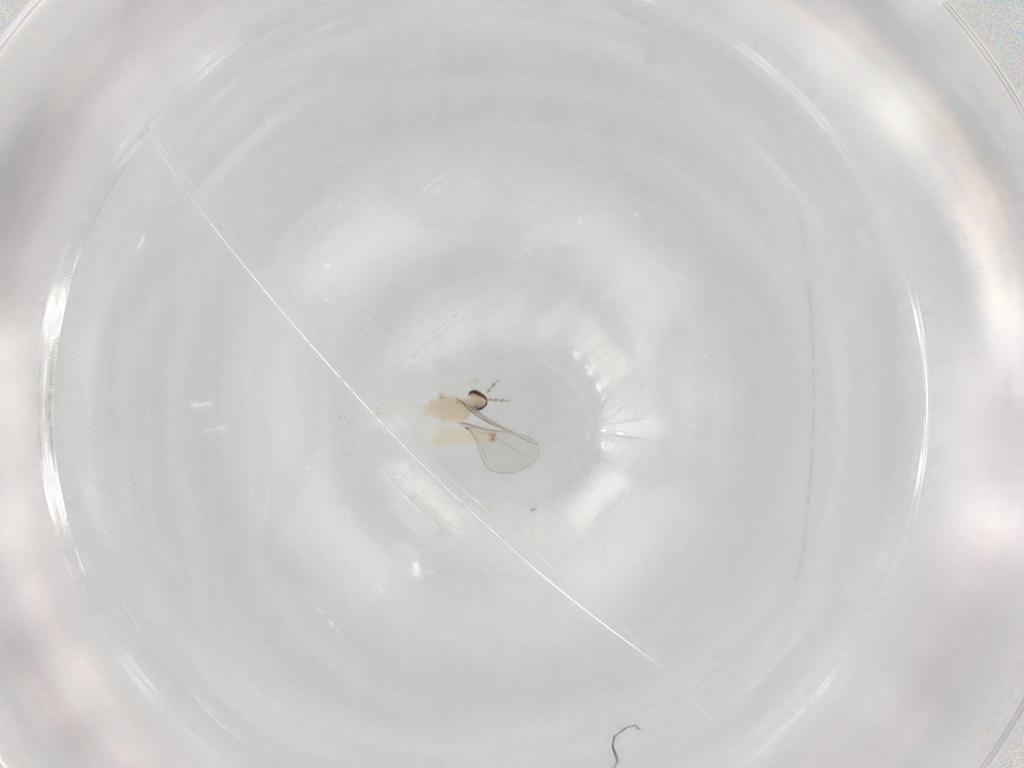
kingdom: Animalia
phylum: Arthropoda
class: Insecta
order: Diptera
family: Cecidomyiidae
